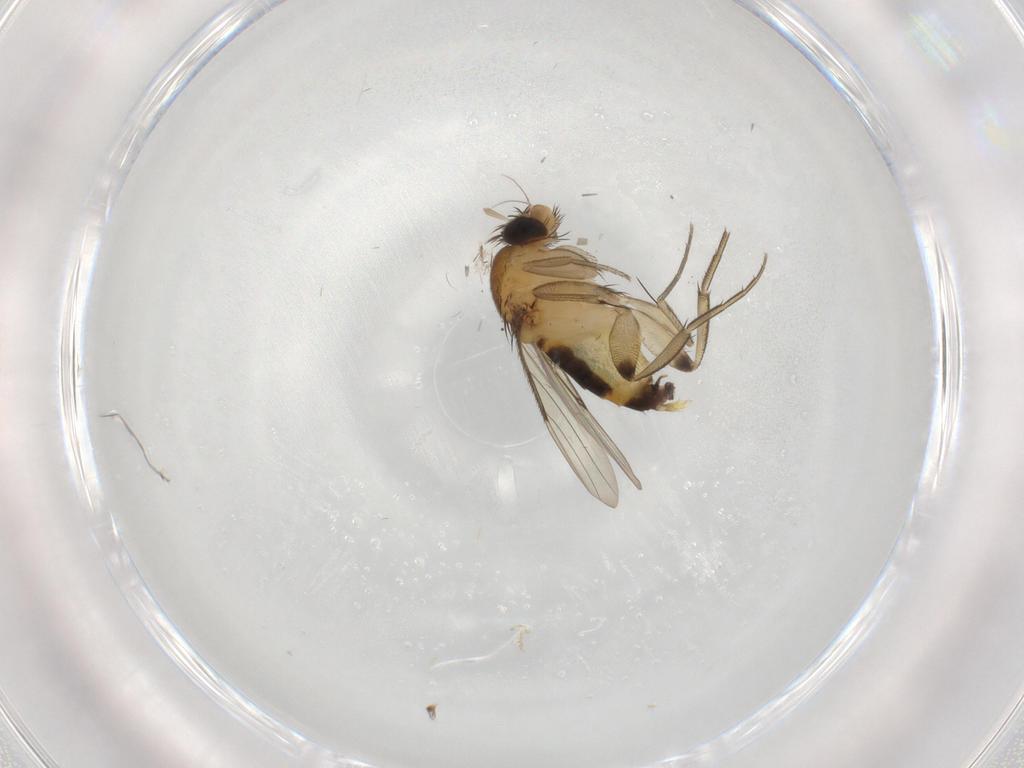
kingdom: Animalia
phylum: Arthropoda
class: Insecta
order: Diptera
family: Phoridae
